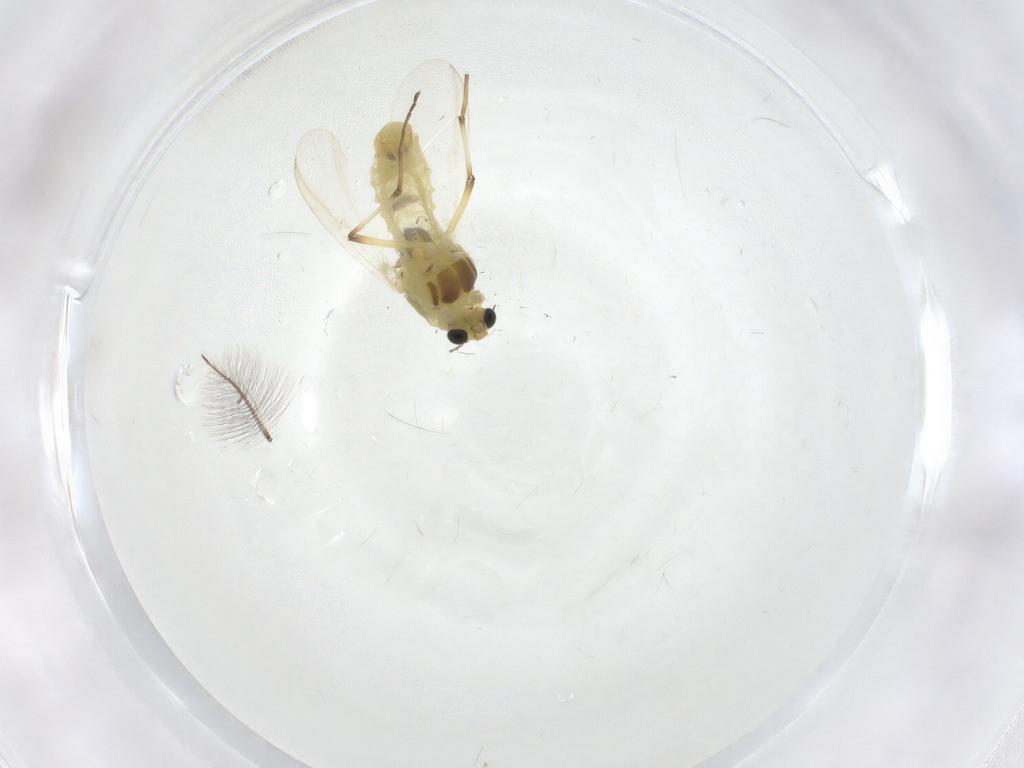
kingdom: Animalia
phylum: Arthropoda
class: Insecta
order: Diptera
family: Chironomidae
